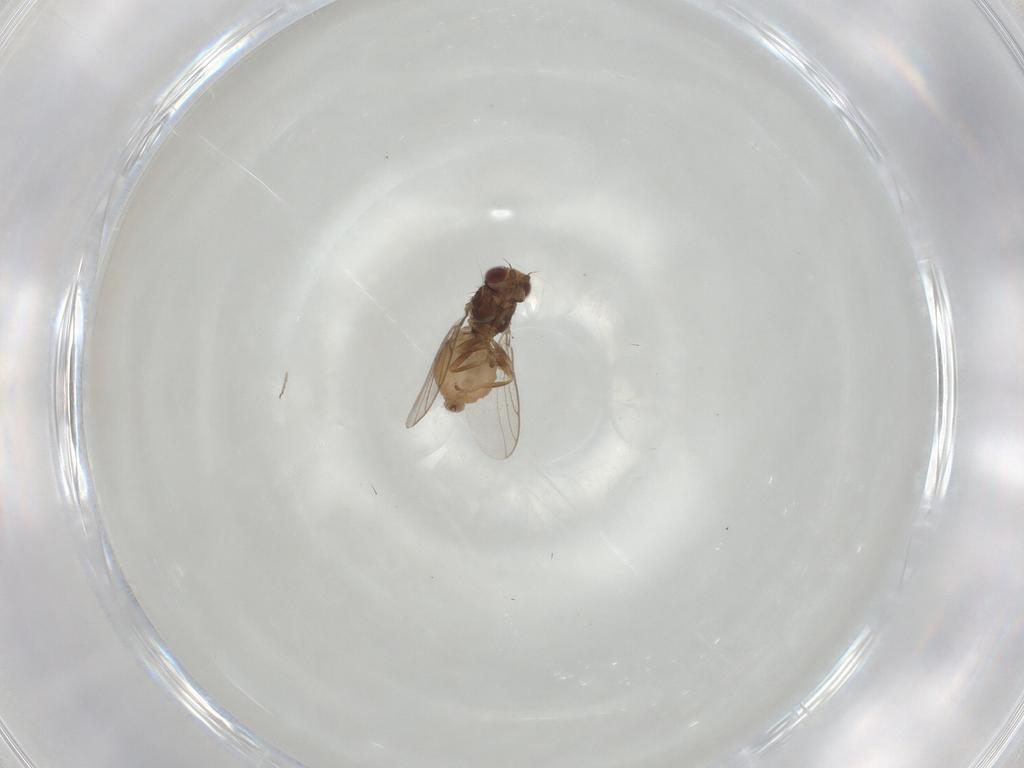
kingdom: Animalia
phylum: Arthropoda
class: Insecta
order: Diptera
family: Chloropidae
